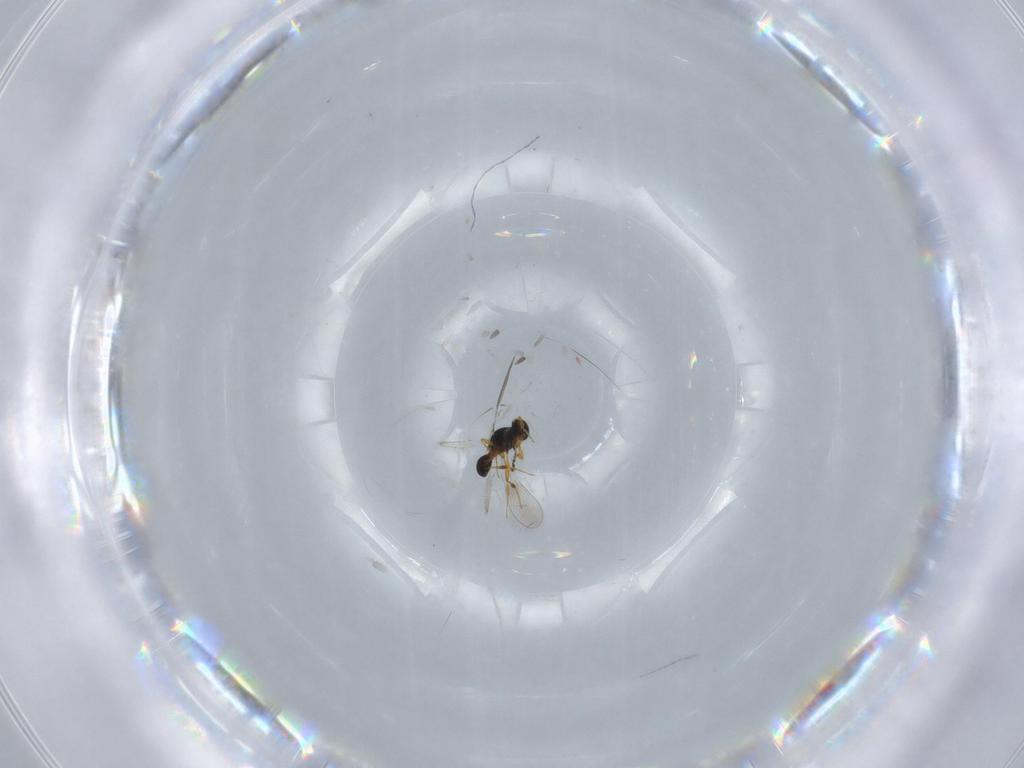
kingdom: Animalia
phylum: Arthropoda
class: Insecta
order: Hymenoptera
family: Platygastridae
